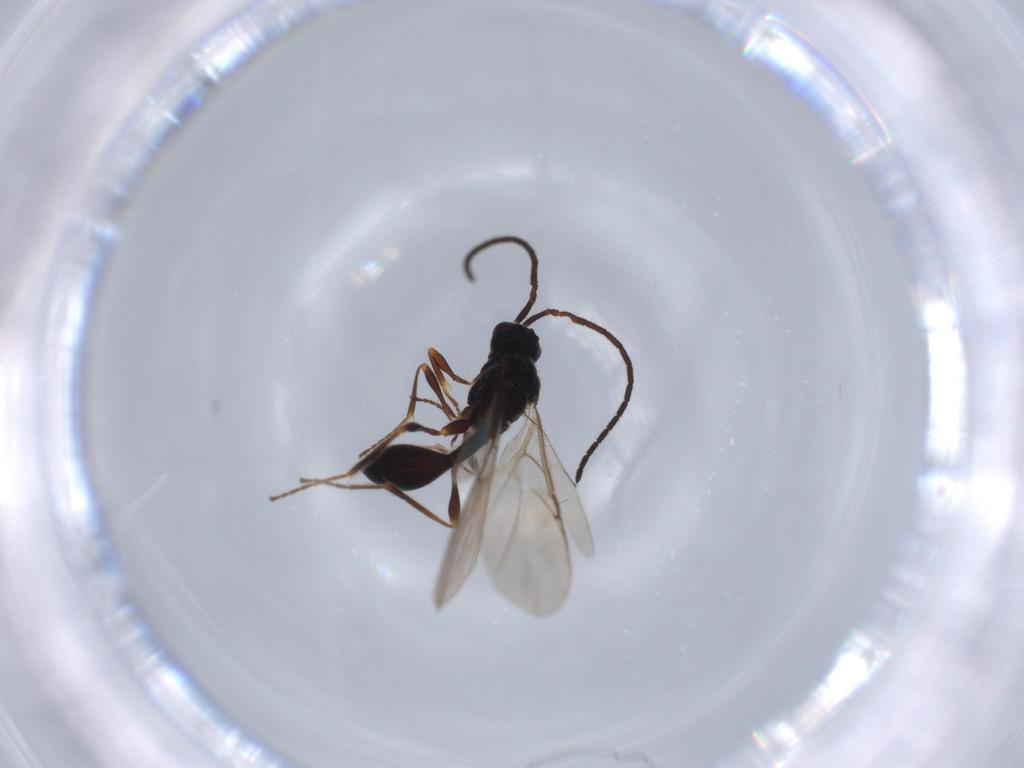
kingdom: Animalia
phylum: Arthropoda
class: Insecta
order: Hymenoptera
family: Diapriidae
